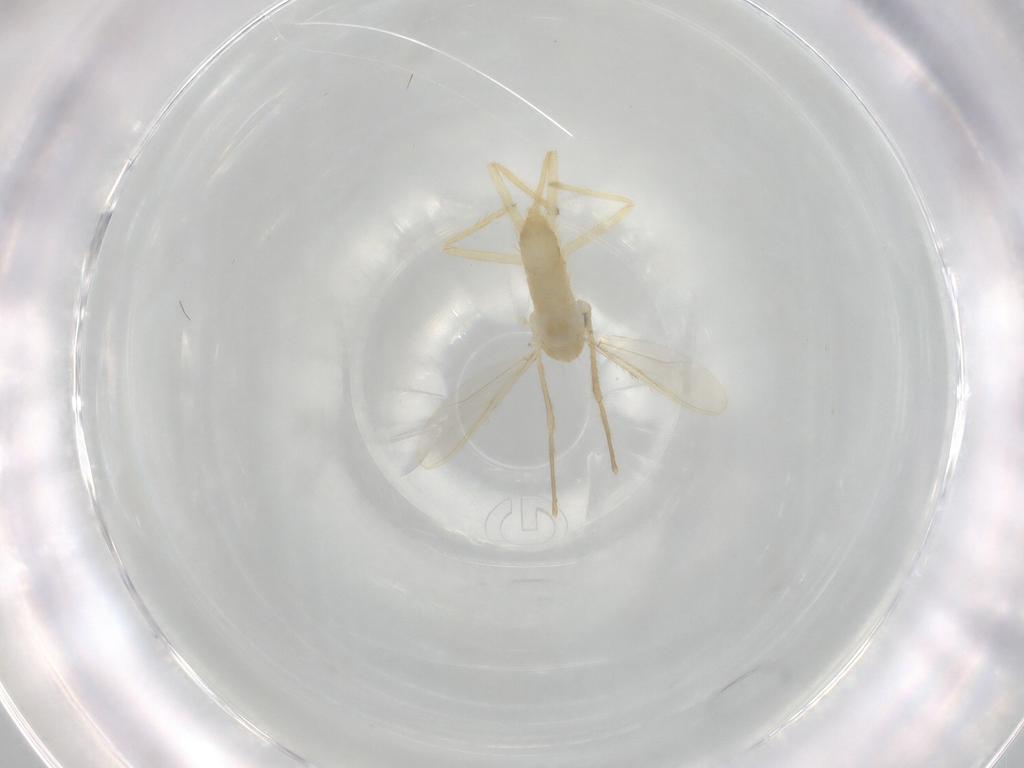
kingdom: Animalia
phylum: Arthropoda
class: Insecta
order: Diptera
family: Chironomidae
